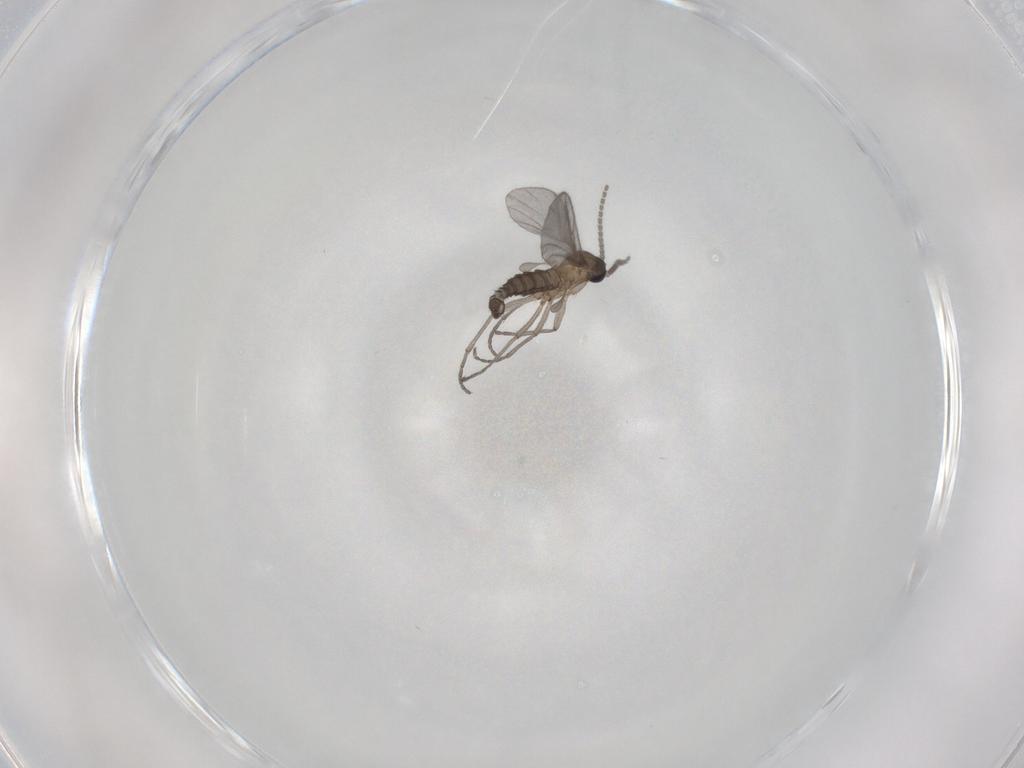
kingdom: Animalia
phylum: Arthropoda
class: Insecta
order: Diptera
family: Sciaridae
